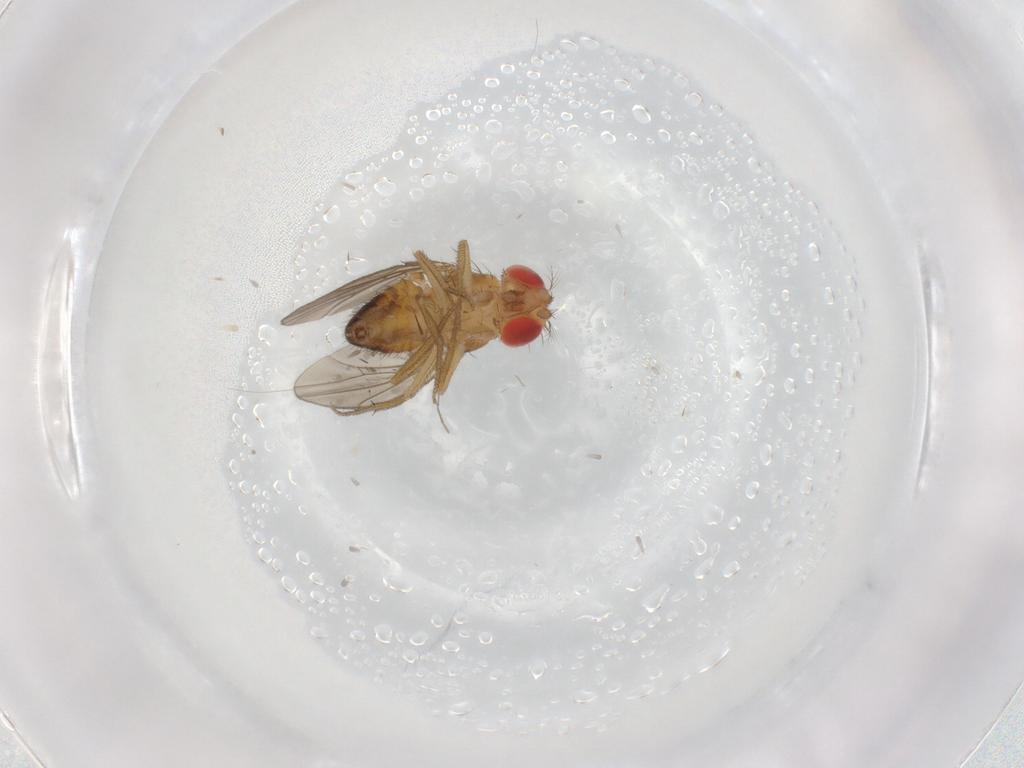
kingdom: Animalia
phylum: Arthropoda
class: Insecta
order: Diptera
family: Drosophilidae
